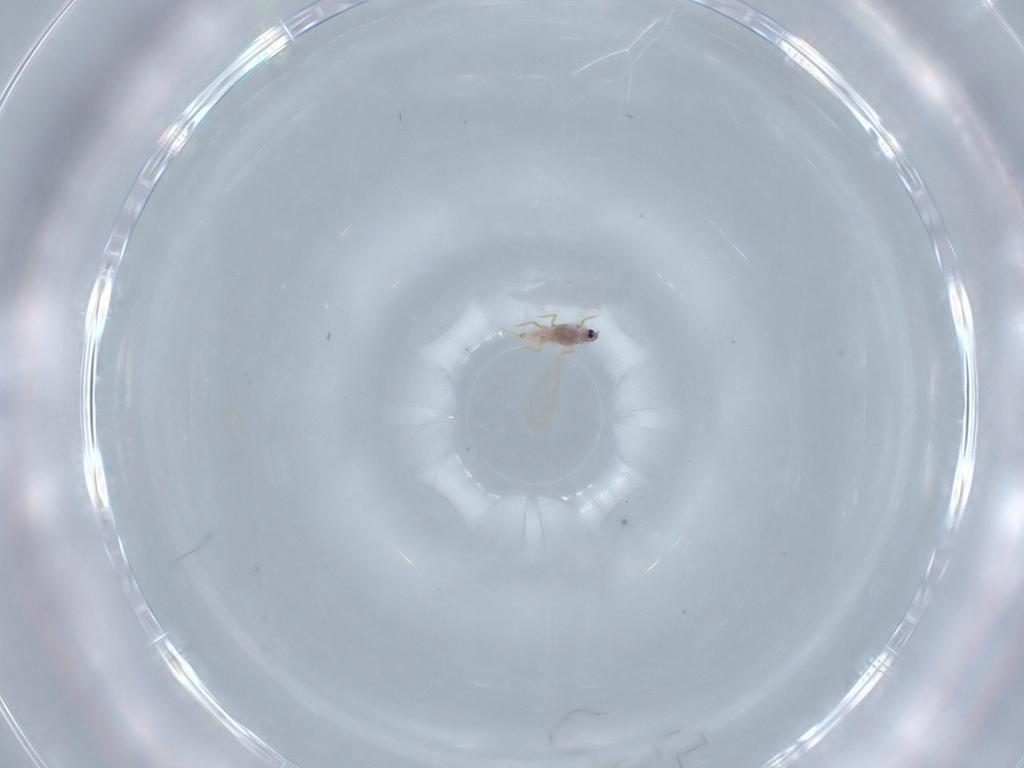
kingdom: Animalia
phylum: Arthropoda
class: Insecta
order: Hemiptera
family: Diaspididae
